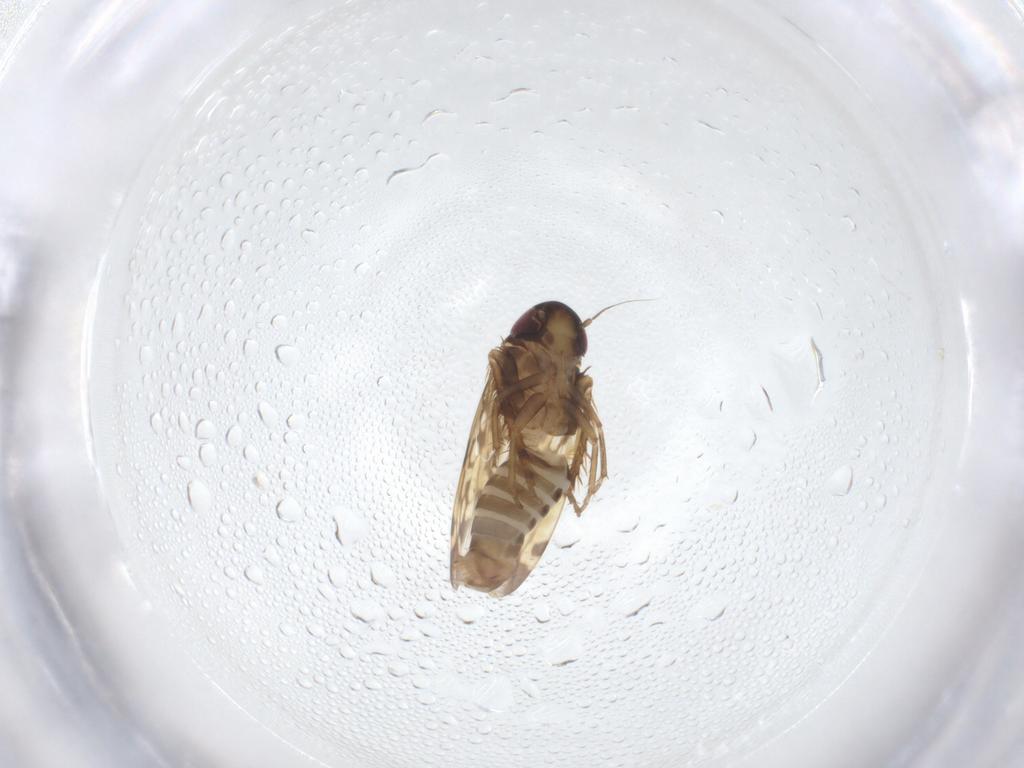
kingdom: Animalia
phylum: Arthropoda
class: Insecta
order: Hemiptera
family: Cicadellidae
